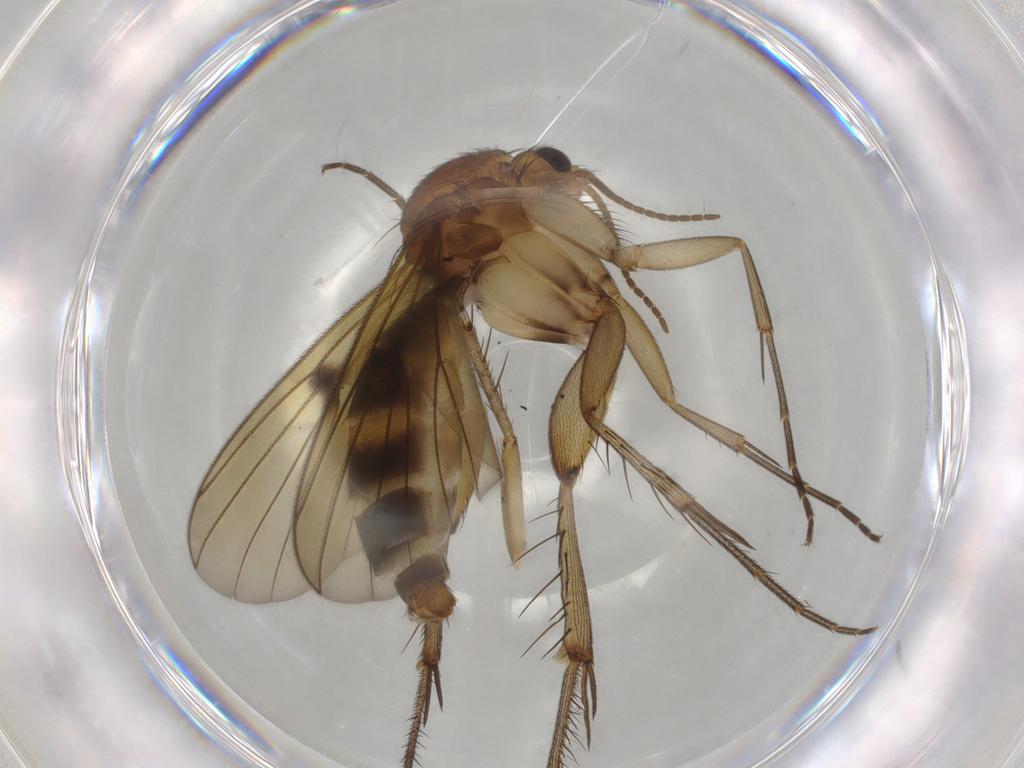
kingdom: Animalia
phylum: Arthropoda
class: Insecta
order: Diptera
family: Mycetophilidae
